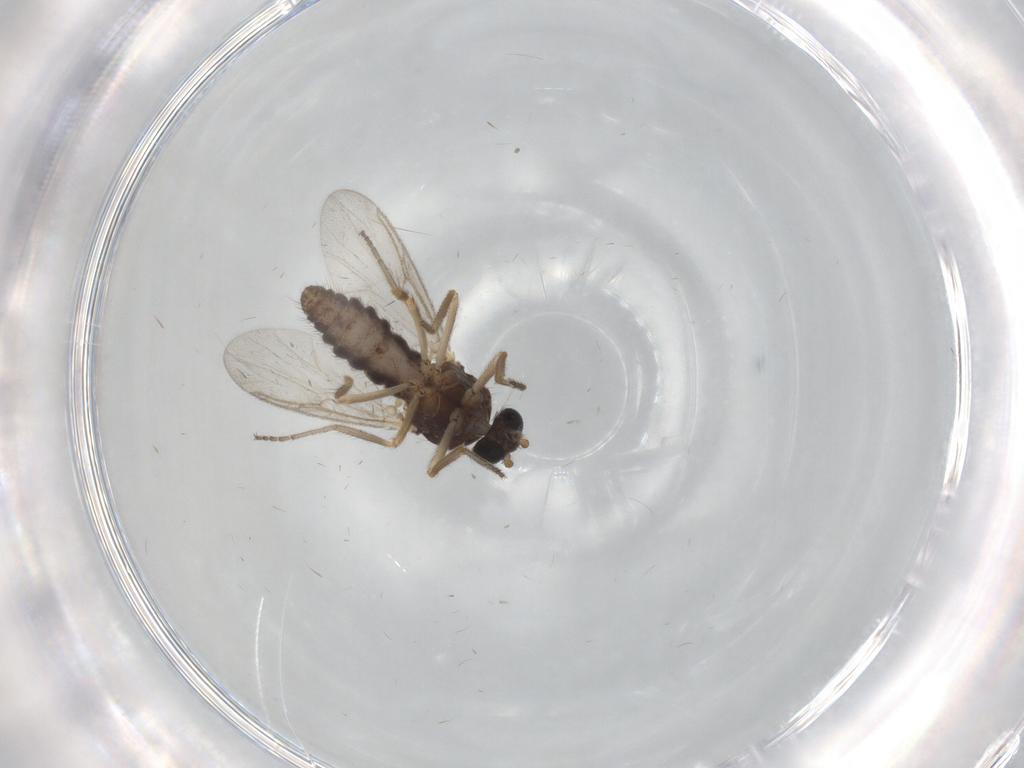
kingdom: Animalia
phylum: Arthropoda
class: Insecta
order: Diptera
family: Ceratopogonidae
